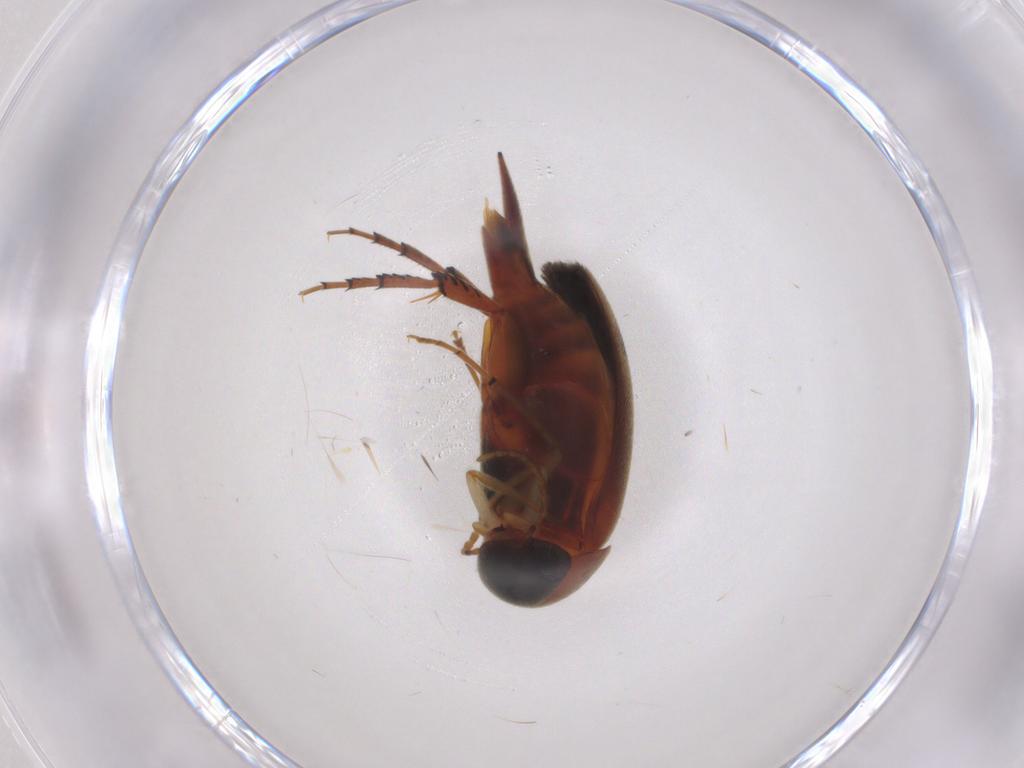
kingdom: Animalia
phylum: Arthropoda
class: Insecta
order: Coleoptera
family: Mordellidae
